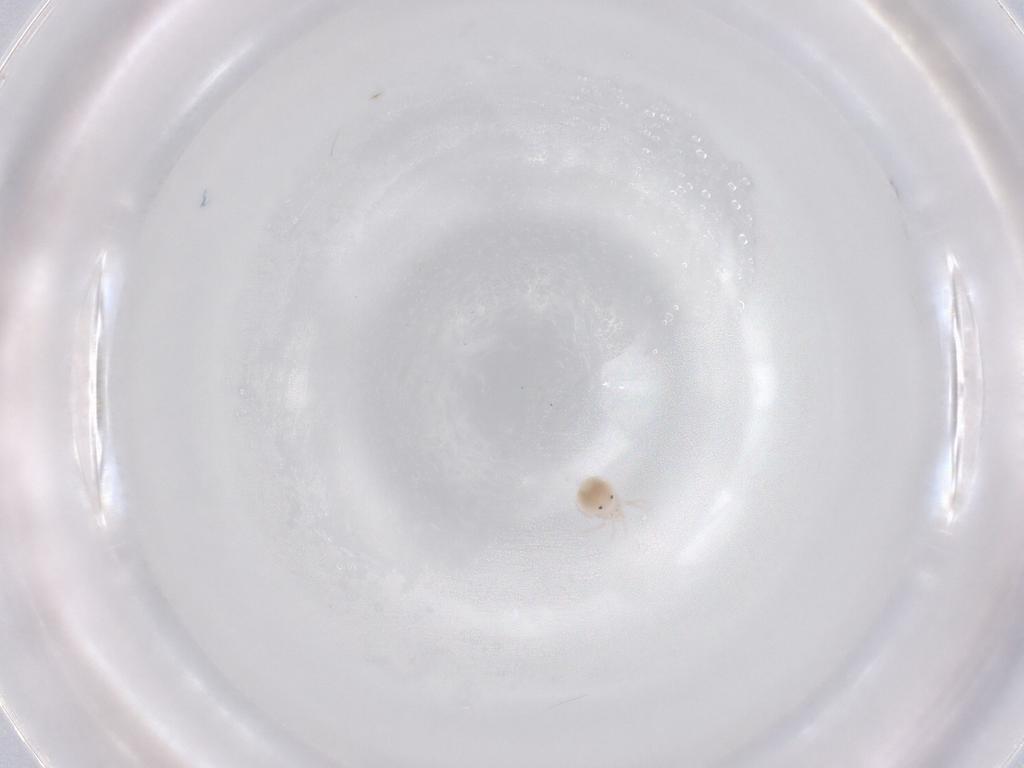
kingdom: Animalia
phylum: Arthropoda
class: Arachnida
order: Trombidiformes
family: Lebertiidae
